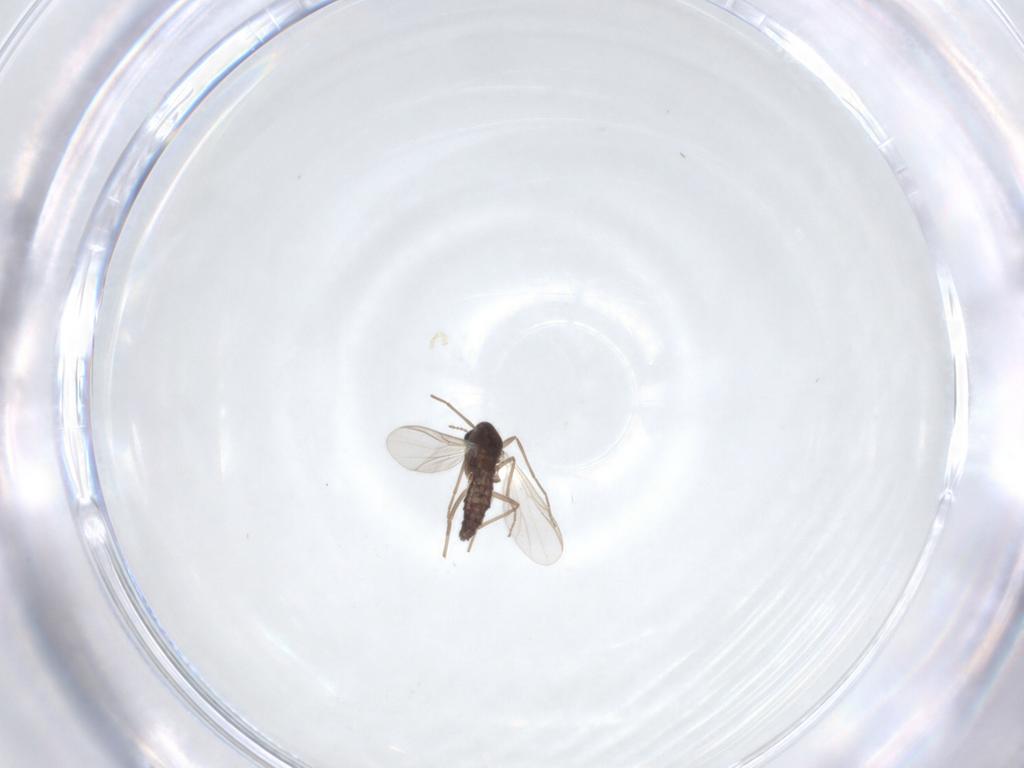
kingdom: Animalia
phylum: Arthropoda
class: Insecta
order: Diptera
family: Chironomidae
